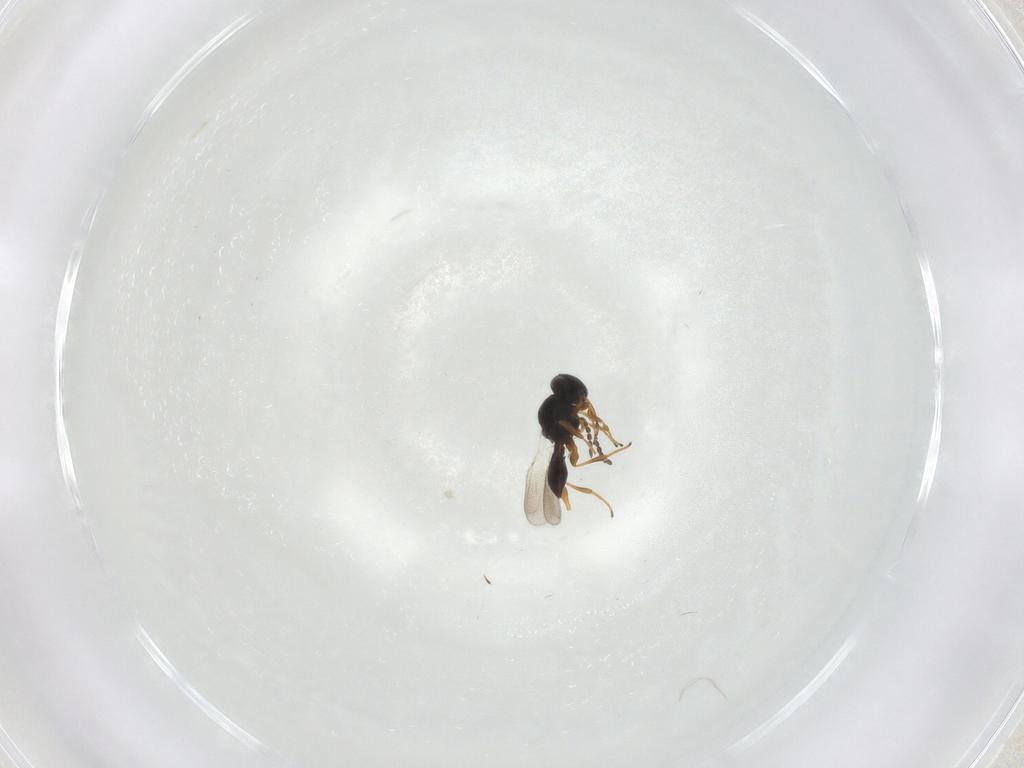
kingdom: Animalia
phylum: Arthropoda
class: Insecta
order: Hymenoptera
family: Platygastridae
